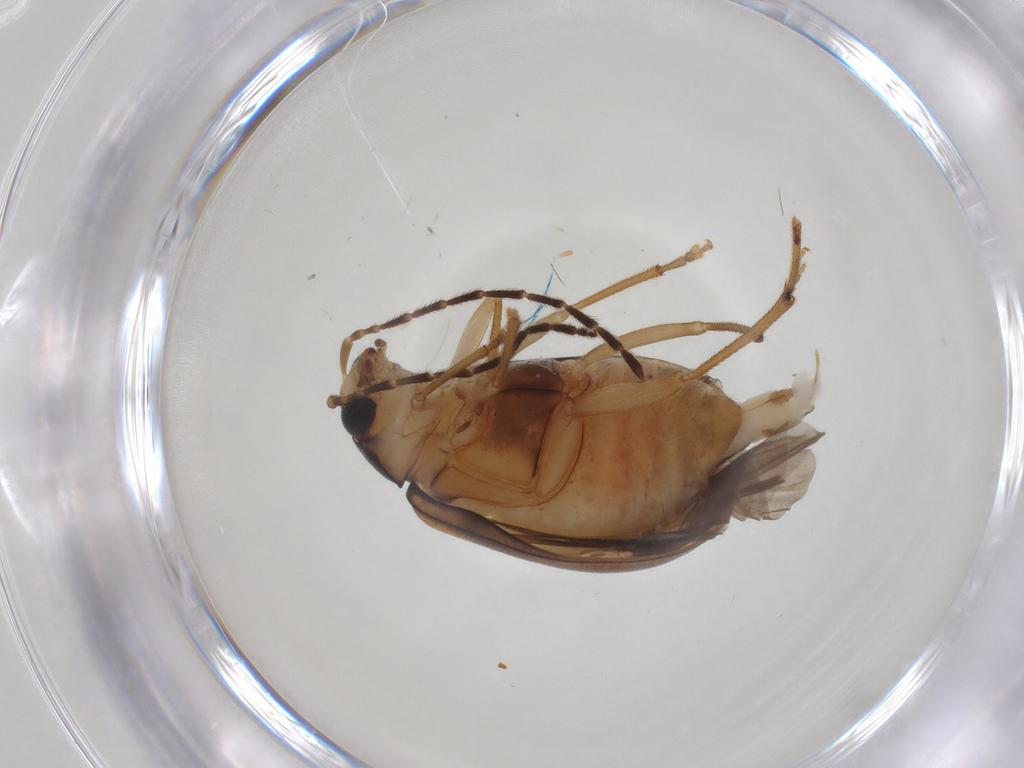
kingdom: Animalia
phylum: Arthropoda
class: Insecta
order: Coleoptera
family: Chrysomelidae
